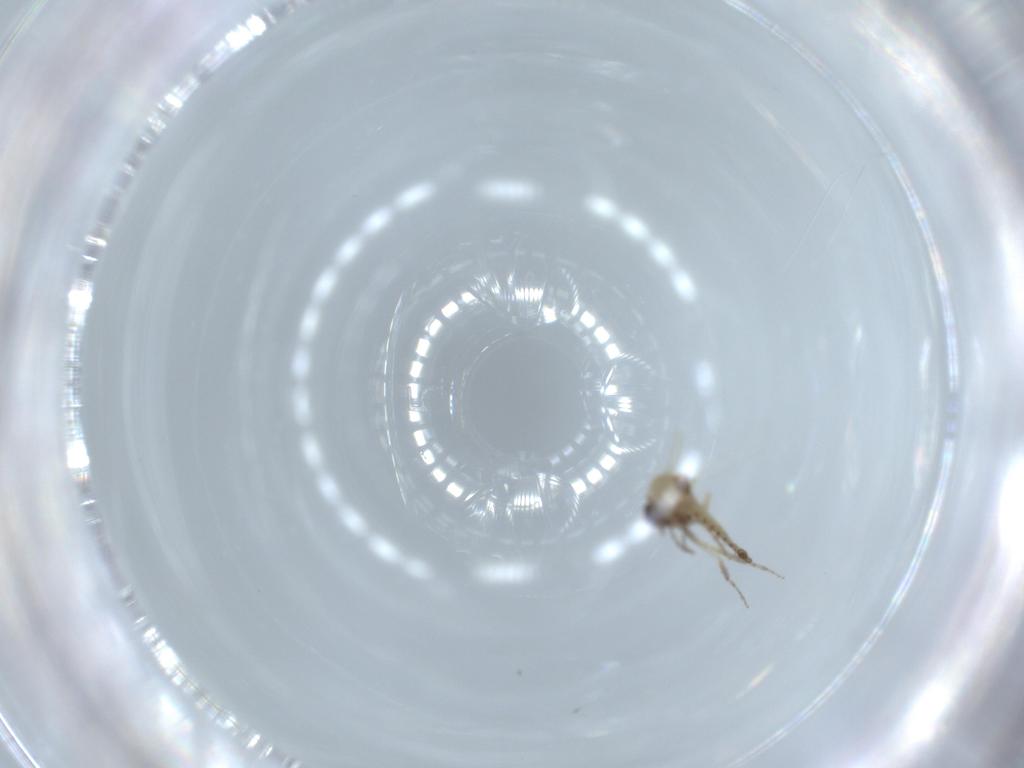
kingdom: Animalia
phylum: Arthropoda
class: Insecta
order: Diptera
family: Ceratopogonidae
